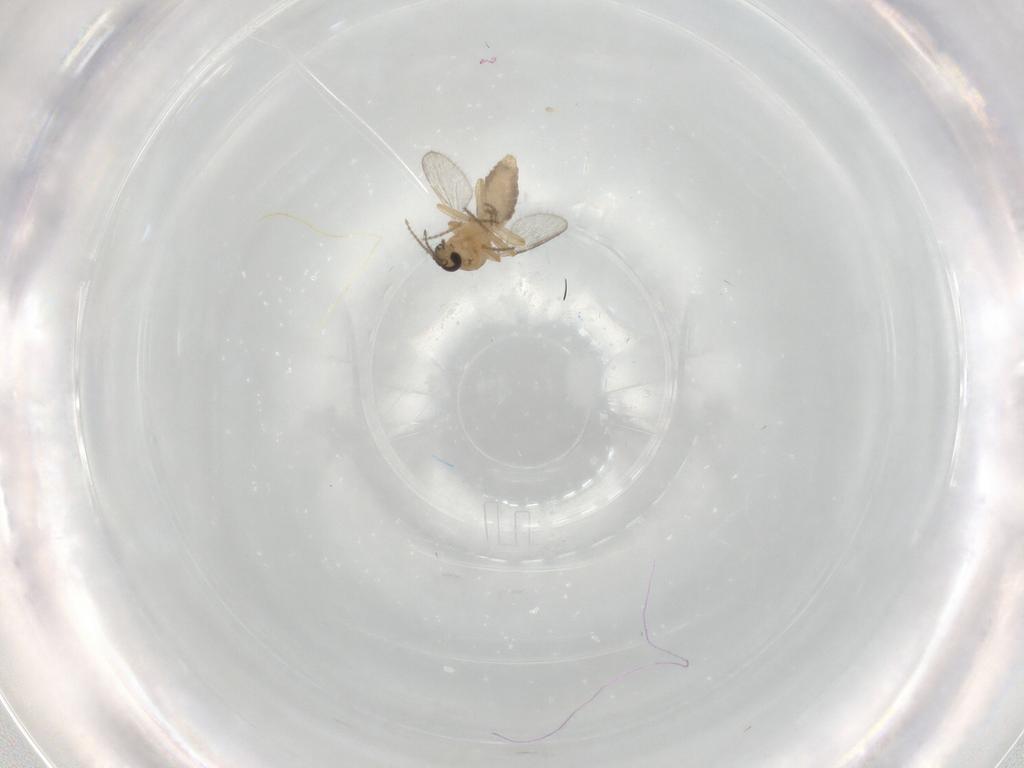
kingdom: Animalia
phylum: Arthropoda
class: Insecta
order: Diptera
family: Ceratopogonidae
